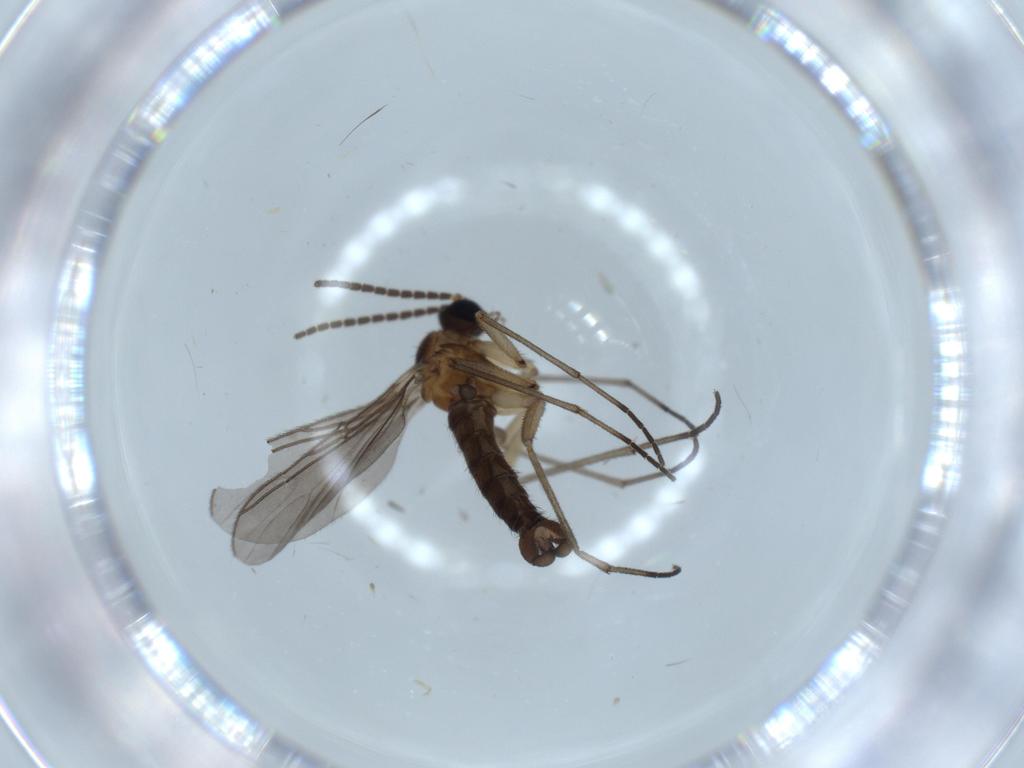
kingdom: Animalia
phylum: Arthropoda
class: Insecta
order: Diptera
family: Sciaridae
